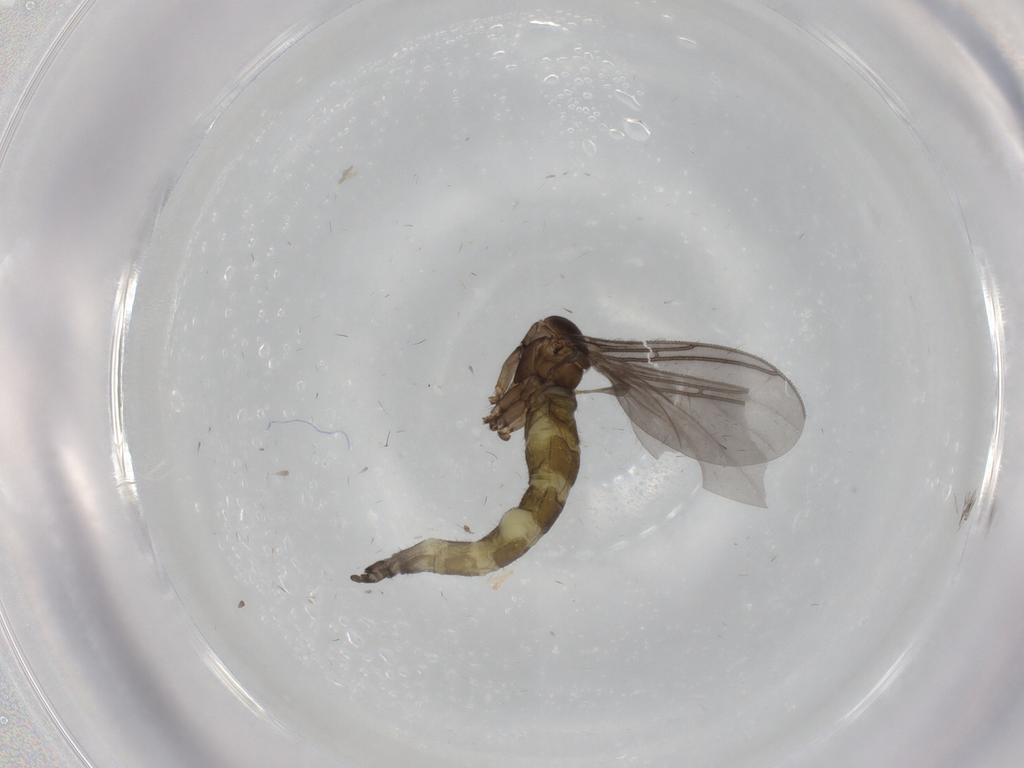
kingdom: Animalia
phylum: Arthropoda
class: Insecta
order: Diptera
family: Sciaridae
